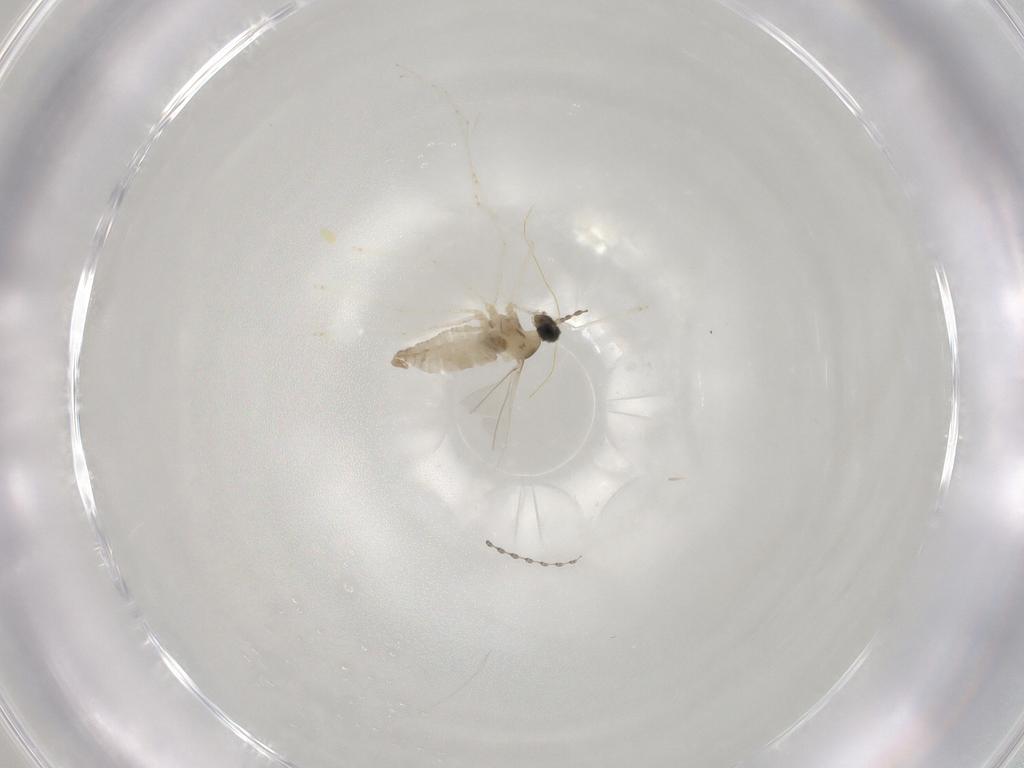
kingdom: Animalia
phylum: Arthropoda
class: Insecta
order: Diptera
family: Cecidomyiidae
